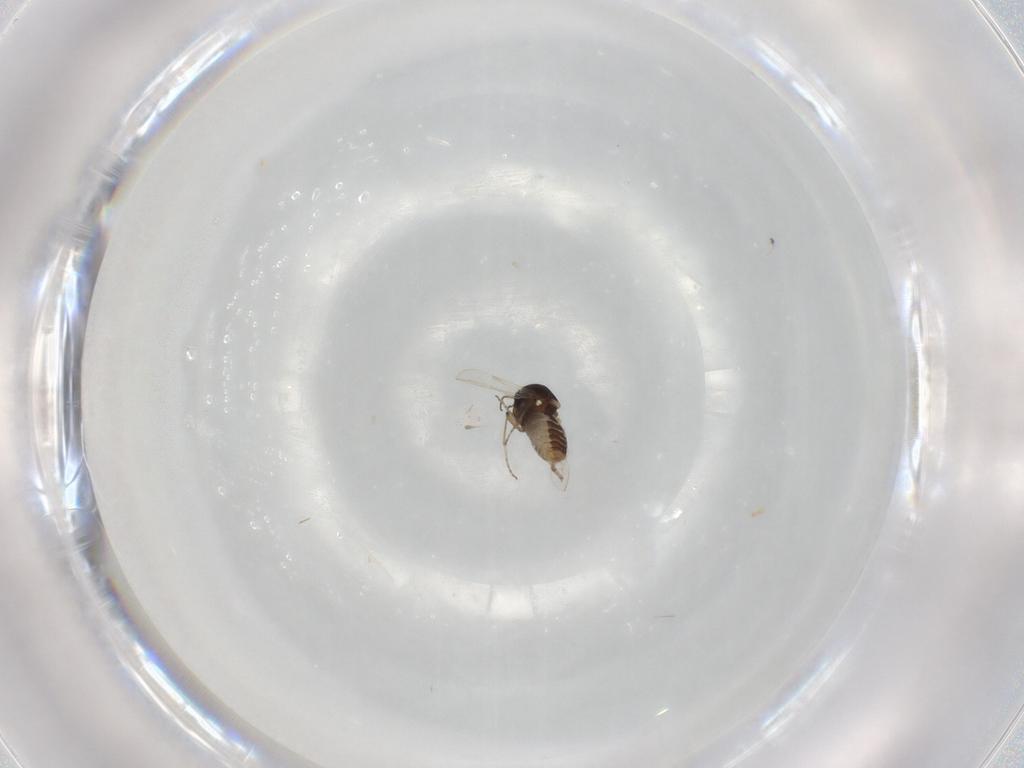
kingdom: Animalia
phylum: Arthropoda
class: Insecta
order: Diptera
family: Ceratopogonidae
